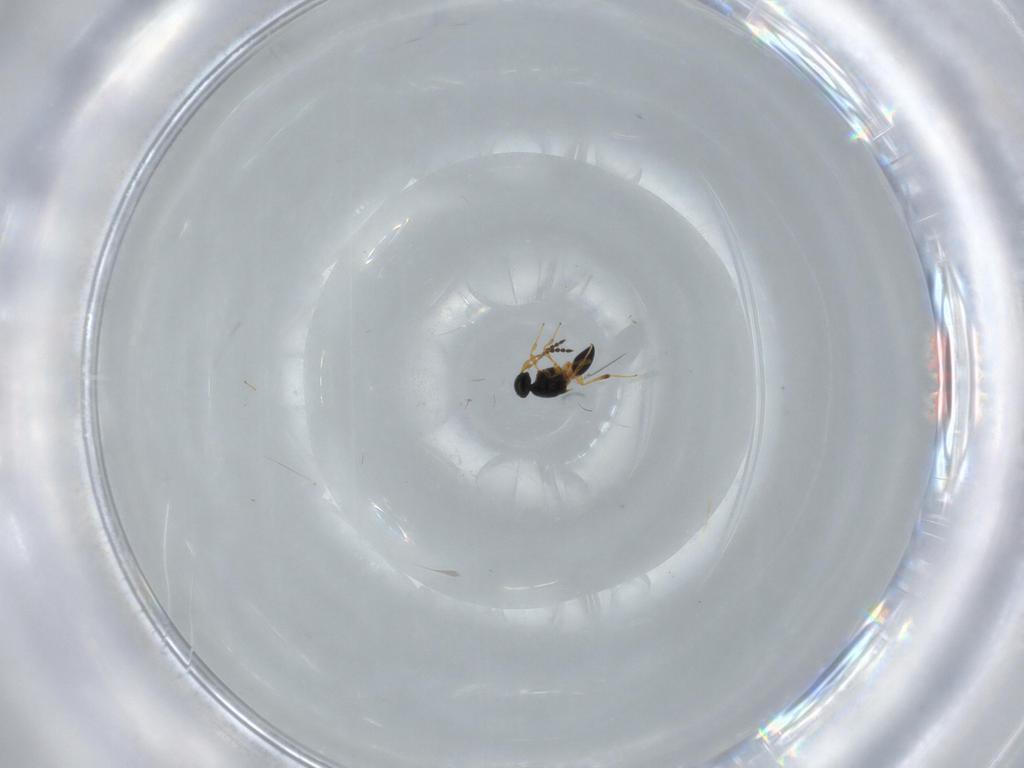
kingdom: Animalia
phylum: Arthropoda
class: Insecta
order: Hymenoptera
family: Platygastridae
